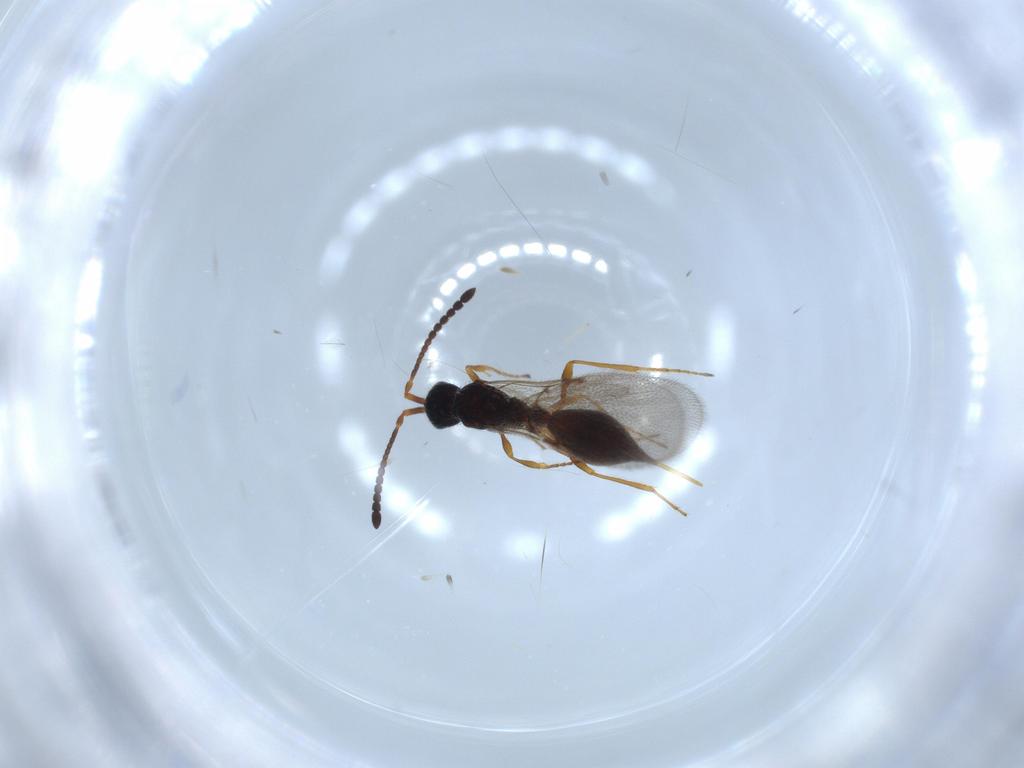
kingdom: Animalia
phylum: Arthropoda
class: Insecta
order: Hymenoptera
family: Diapriidae
